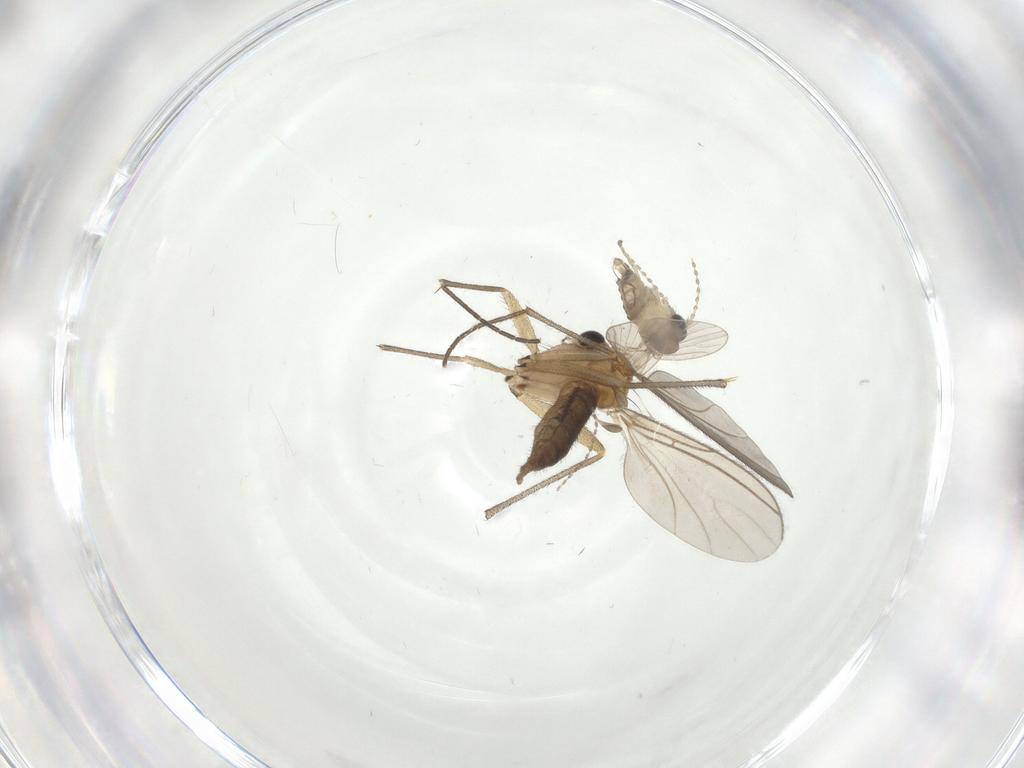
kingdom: Animalia
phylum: Arthropoda
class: Insecta
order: Diptera
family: Sciaridae
